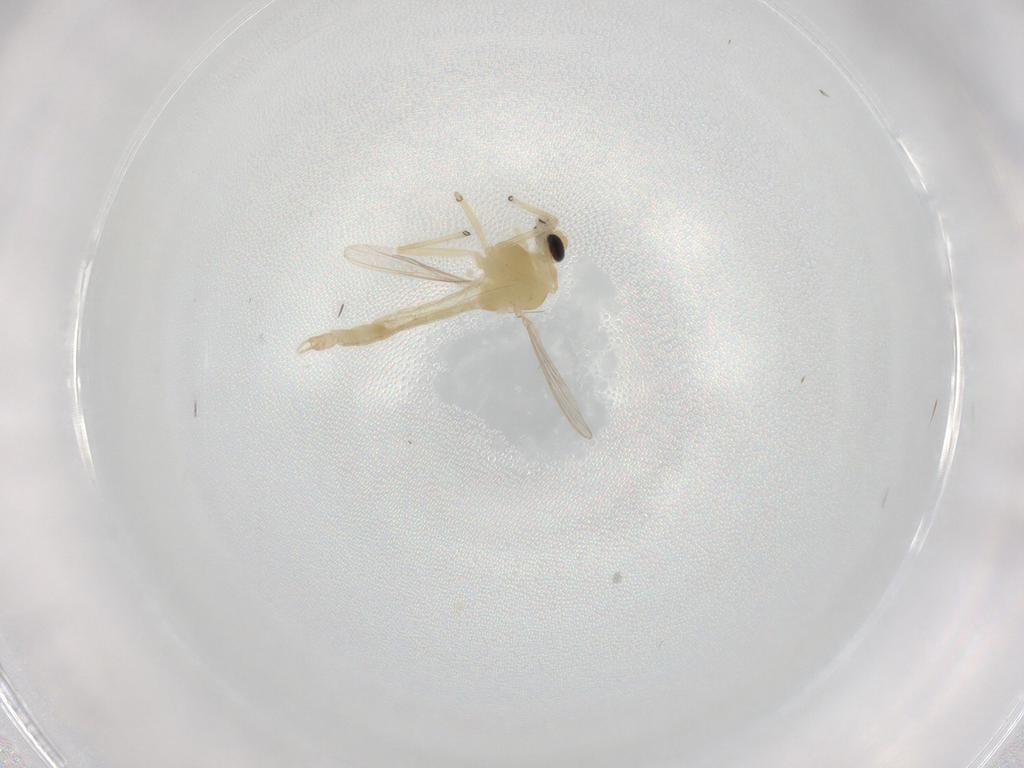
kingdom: Animalia
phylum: Arthropoda
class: Insecta
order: Diptera
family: Chironomidae
